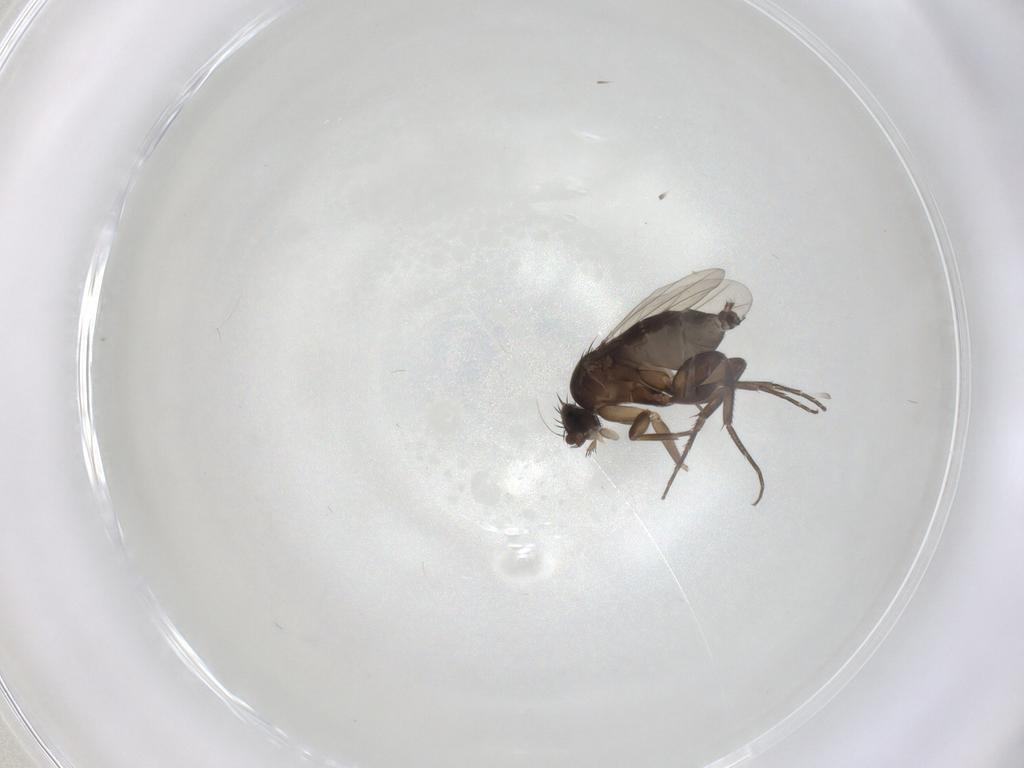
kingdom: Animalia
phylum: Arthropoda
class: Insecta
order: Diptera
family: Phoridae
